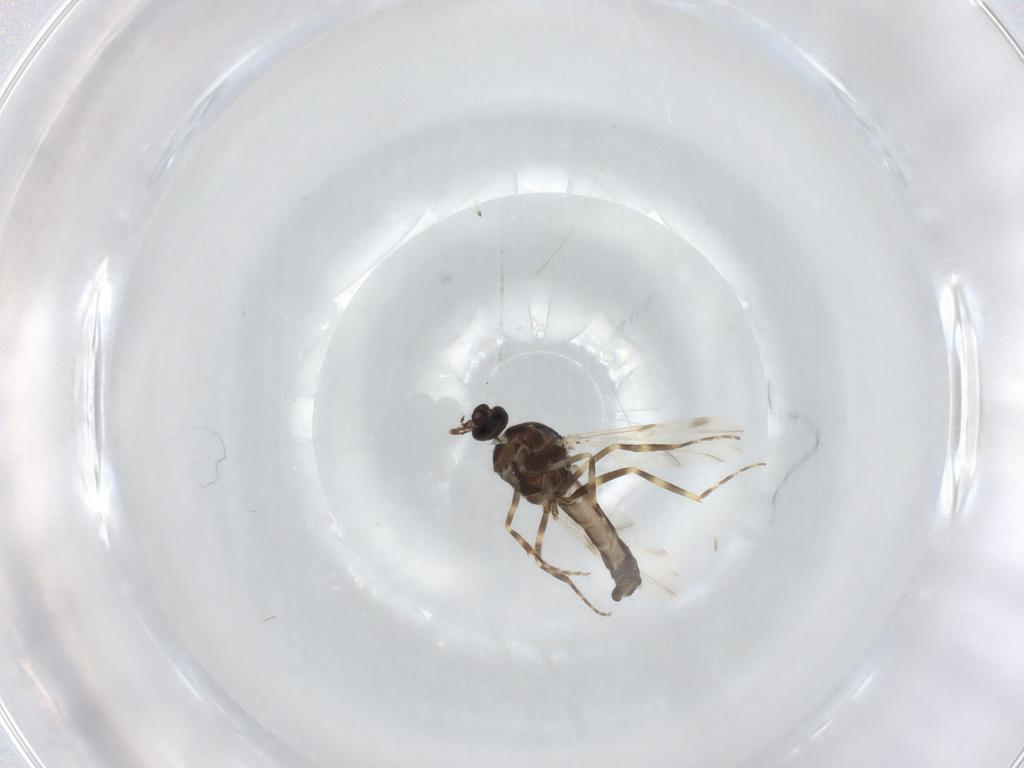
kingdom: Animalia
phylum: Arthropoda
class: Insecta
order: Diptera
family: Ceratopogonidae
